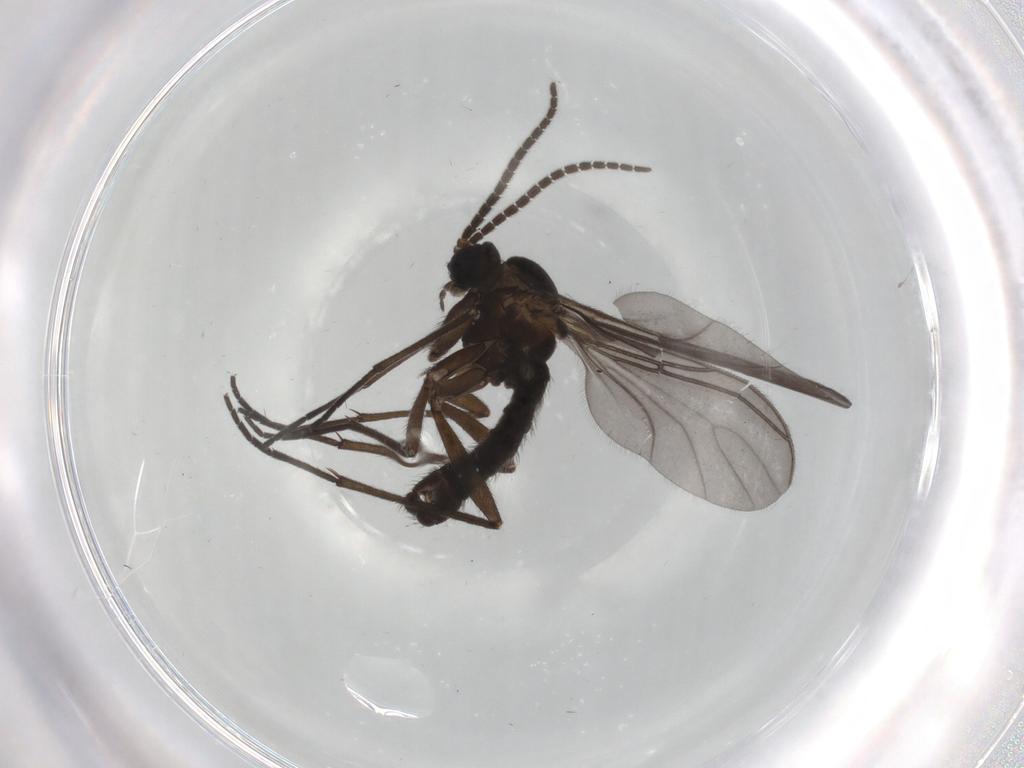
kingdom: Animalia
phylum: Arthropoda
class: Insecta
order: Diptera
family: Sciaridae
